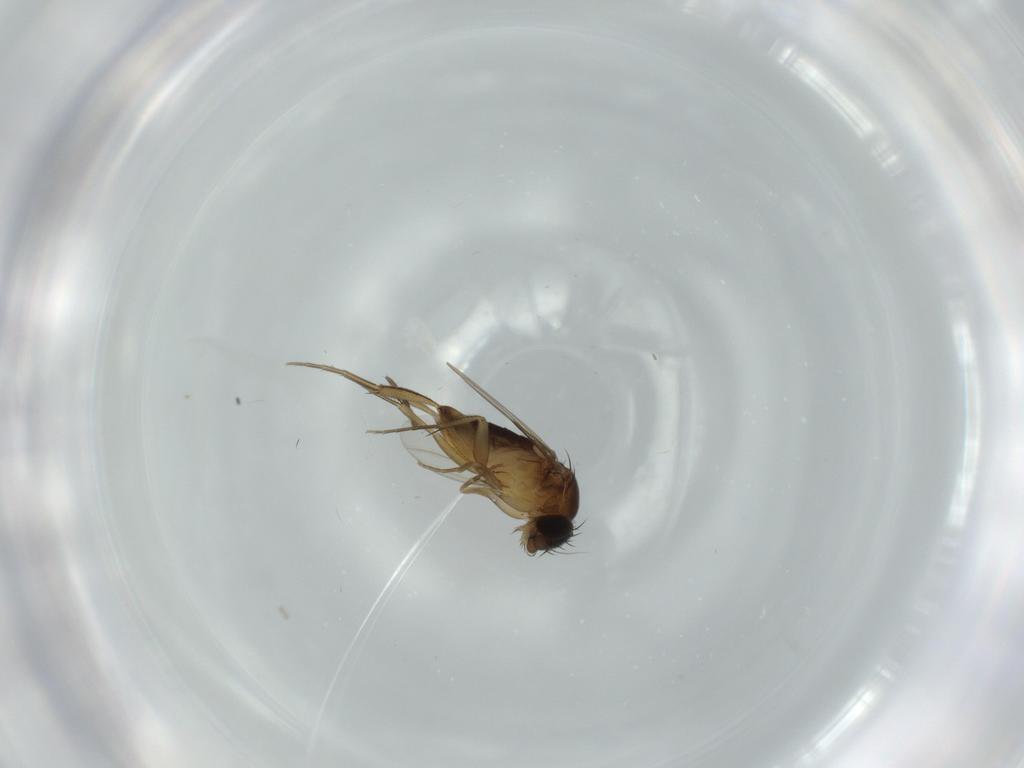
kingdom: Animalia
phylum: Arthropoda
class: Insecta
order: Diptera
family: Phoridae
